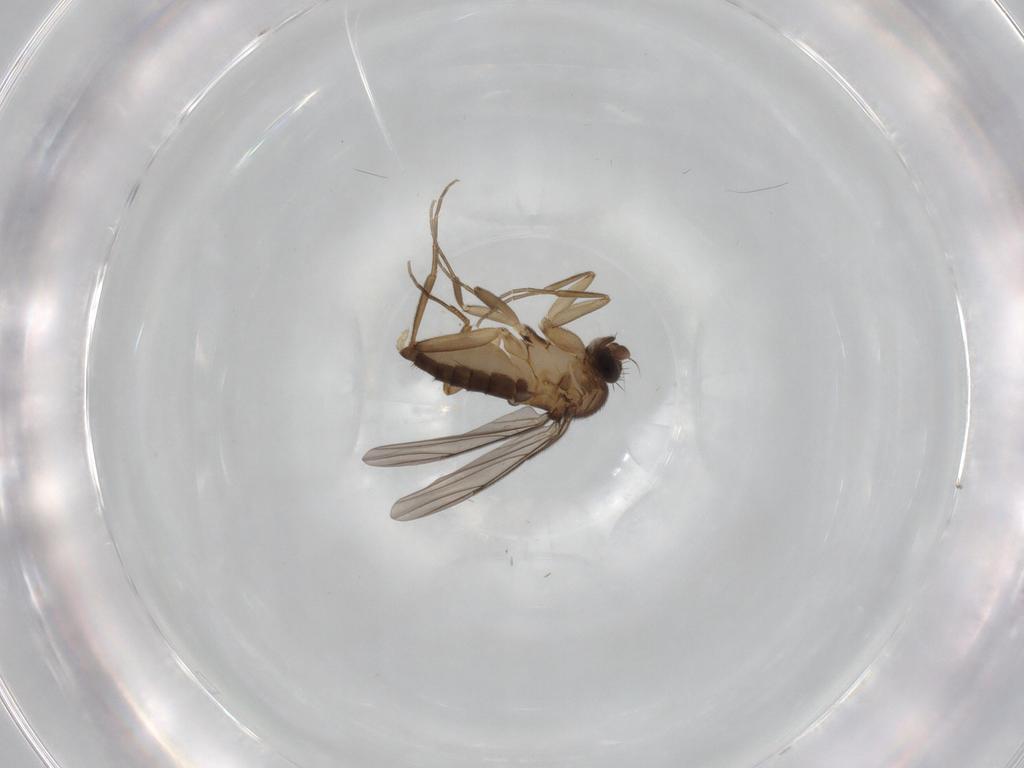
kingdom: Animalia
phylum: Arthropoda
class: Insecta
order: Diptera
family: Phoridae
